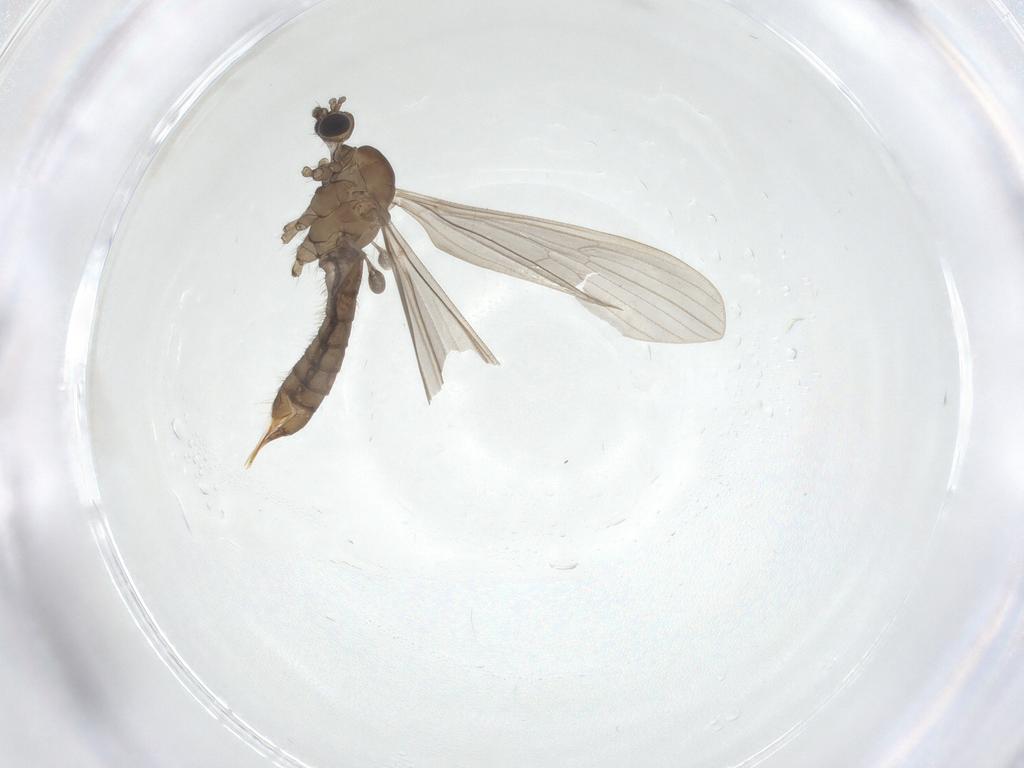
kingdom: Animalia
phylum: Arthropoda
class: Insecta
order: Diptera
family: Limoniidae
